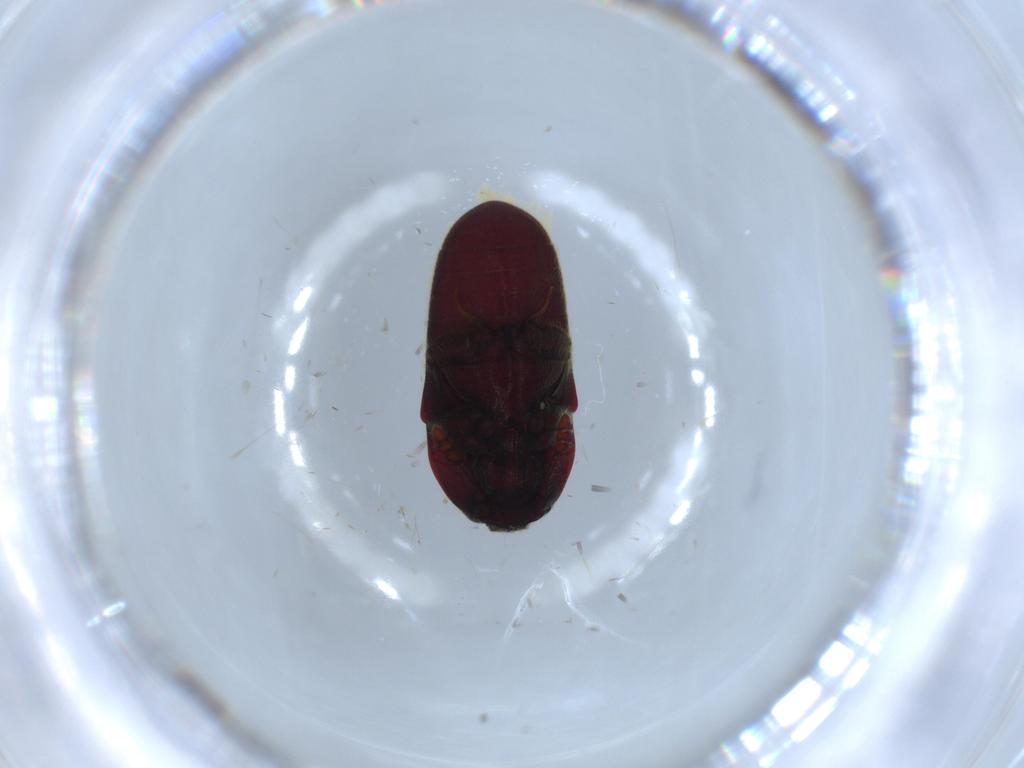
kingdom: Animalia
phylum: Arthropoda
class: Insecta
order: Coleoptera
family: Throscidae
